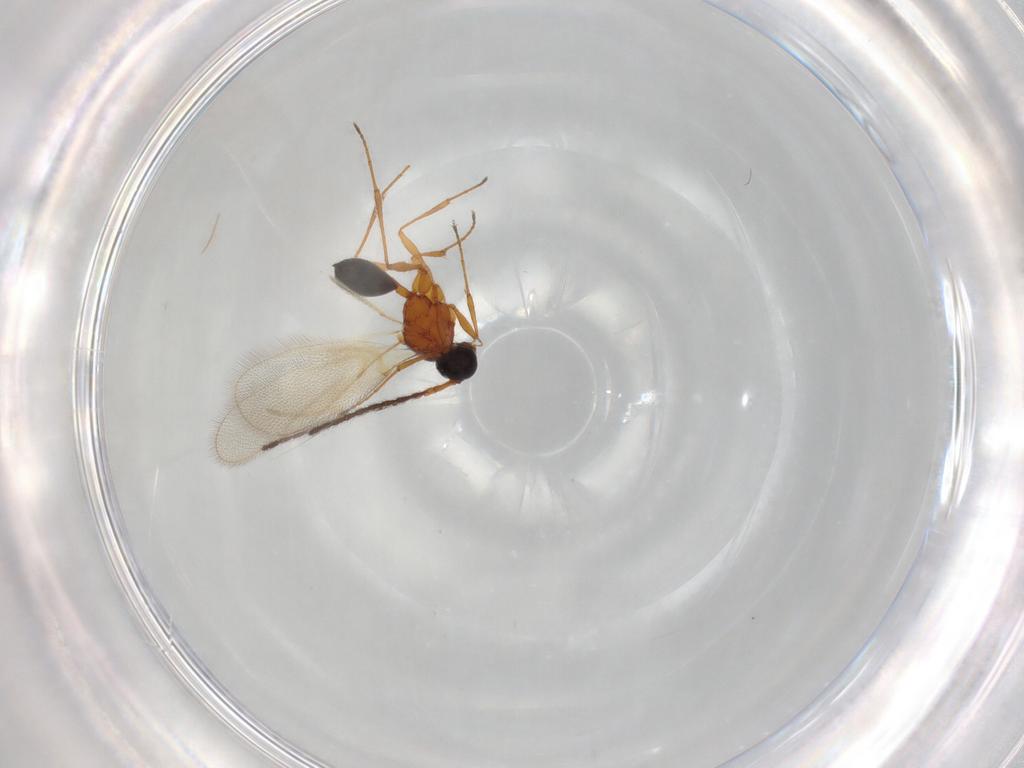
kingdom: Animalia
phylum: Arthropoda
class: Insecta
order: Hymenoptera
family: Diapriidae
